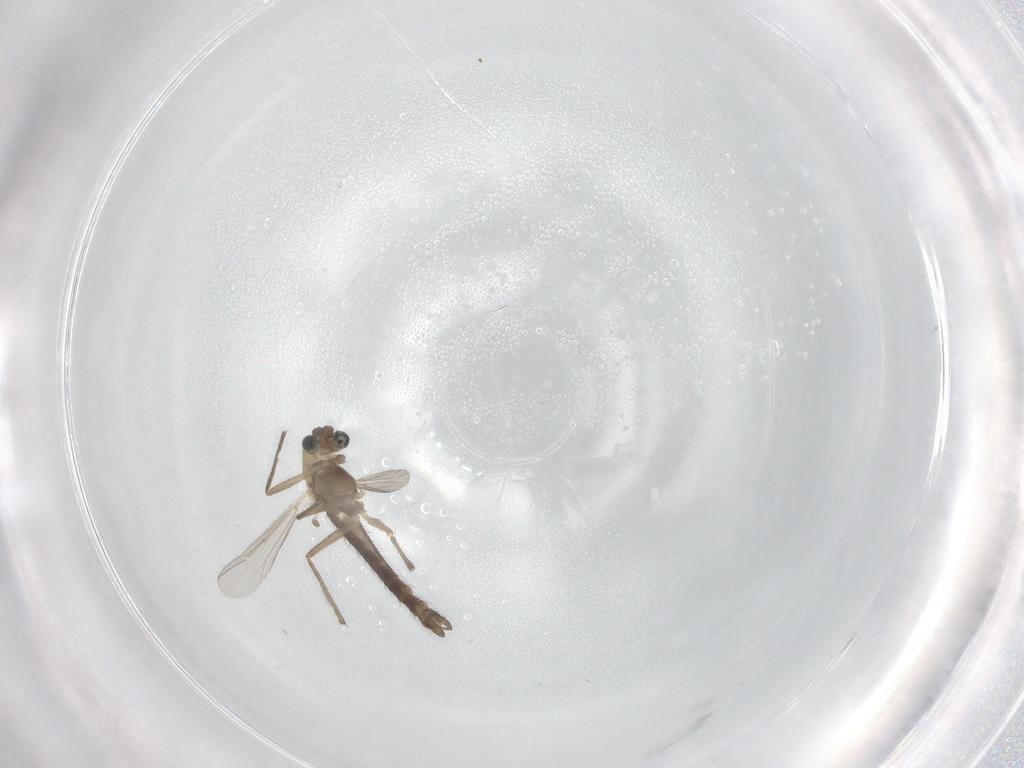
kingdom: Animalia
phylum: Arthropoda
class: Insecta
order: Diptera
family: Chironomidae
